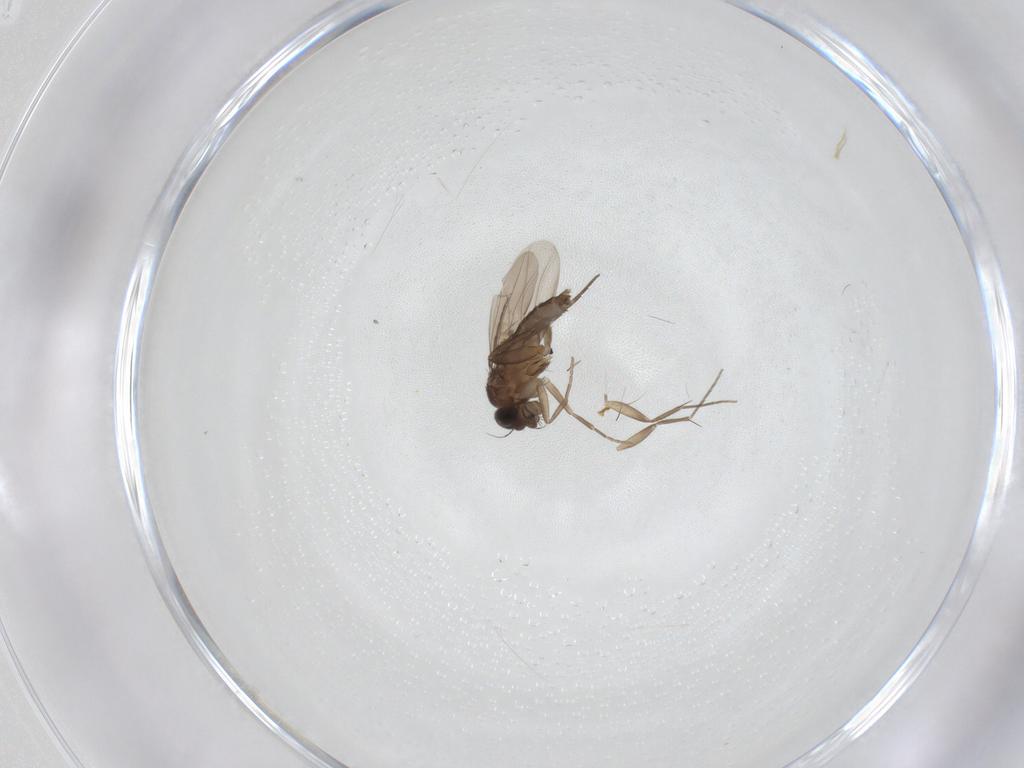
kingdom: Animalia
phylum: Arthropoda
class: Insecta
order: Diptera
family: Phoridae
